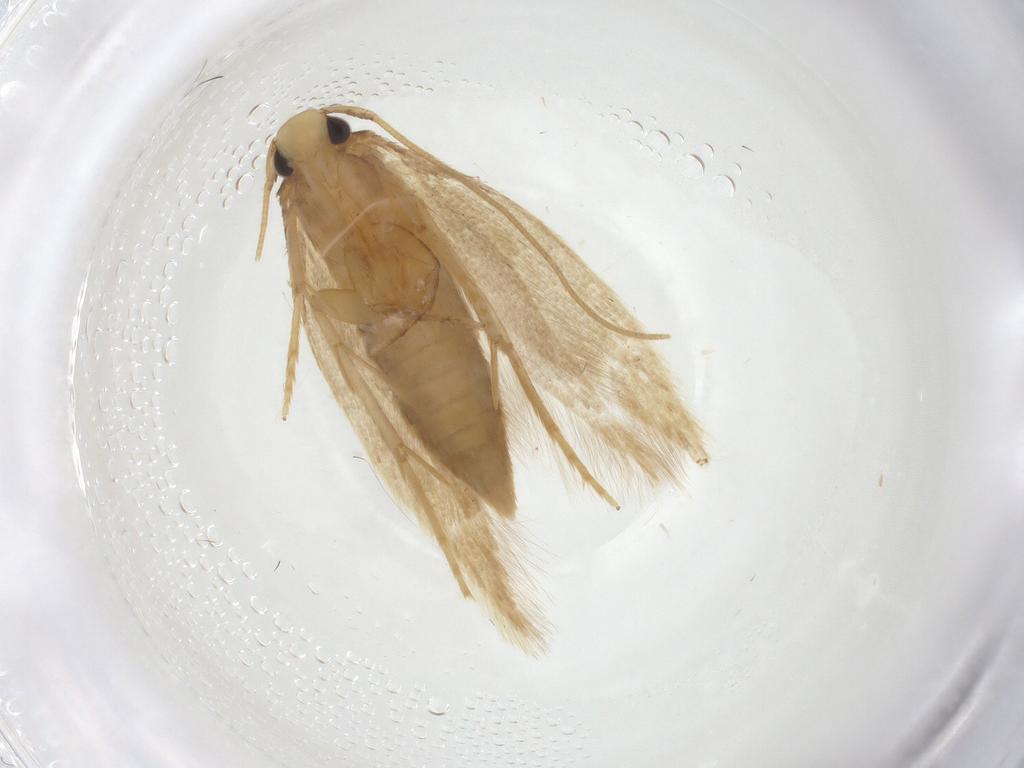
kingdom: Animalia
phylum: Arthropoda
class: Insecta
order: Lepidoptera
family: Tineidae
